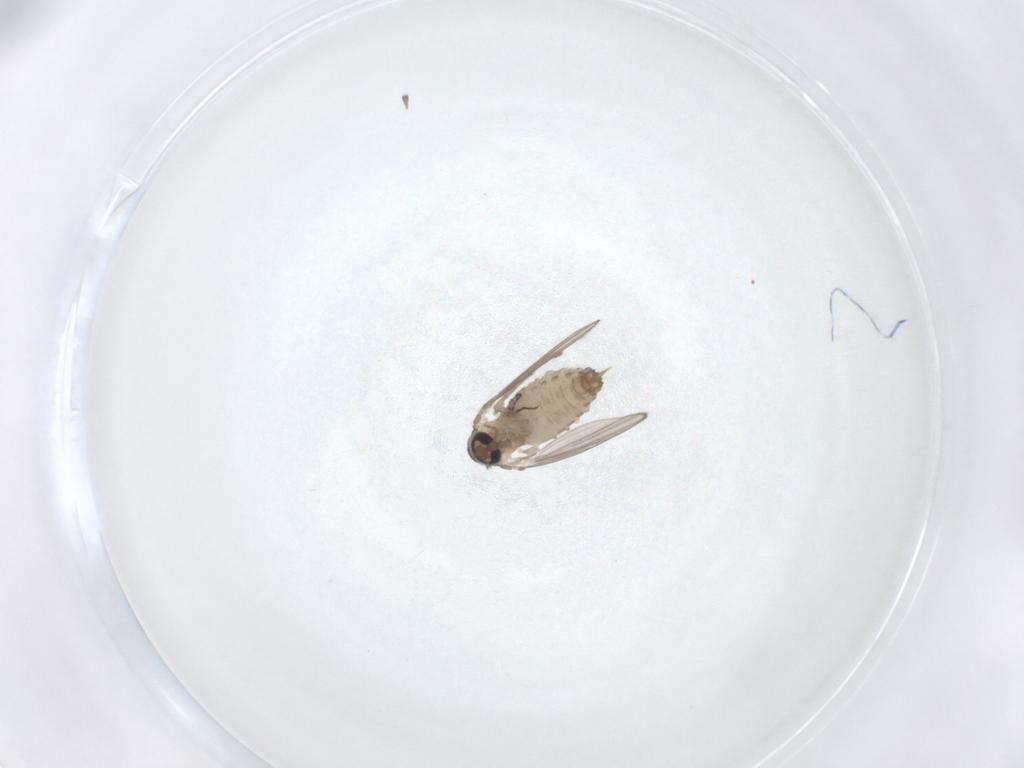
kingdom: Animalia
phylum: Arthropoda
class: Insecta
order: Diptera
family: Psychodidae
